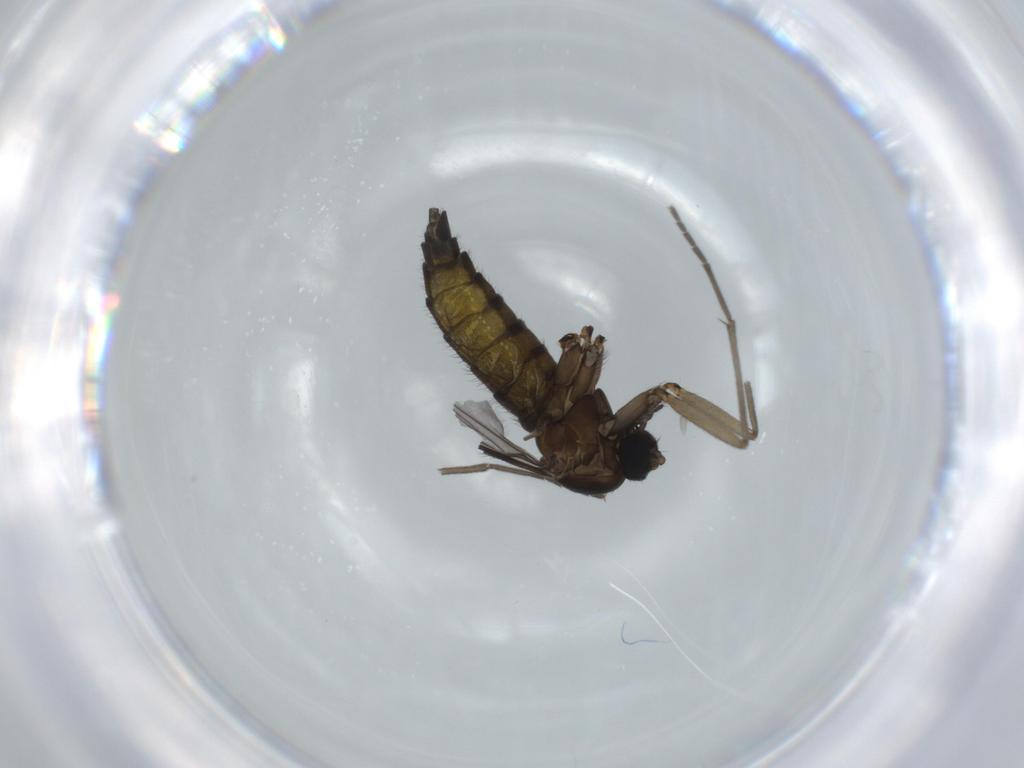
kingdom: Animalia
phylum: Arthropoda
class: Insecta
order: Diptera
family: Sciaridae
